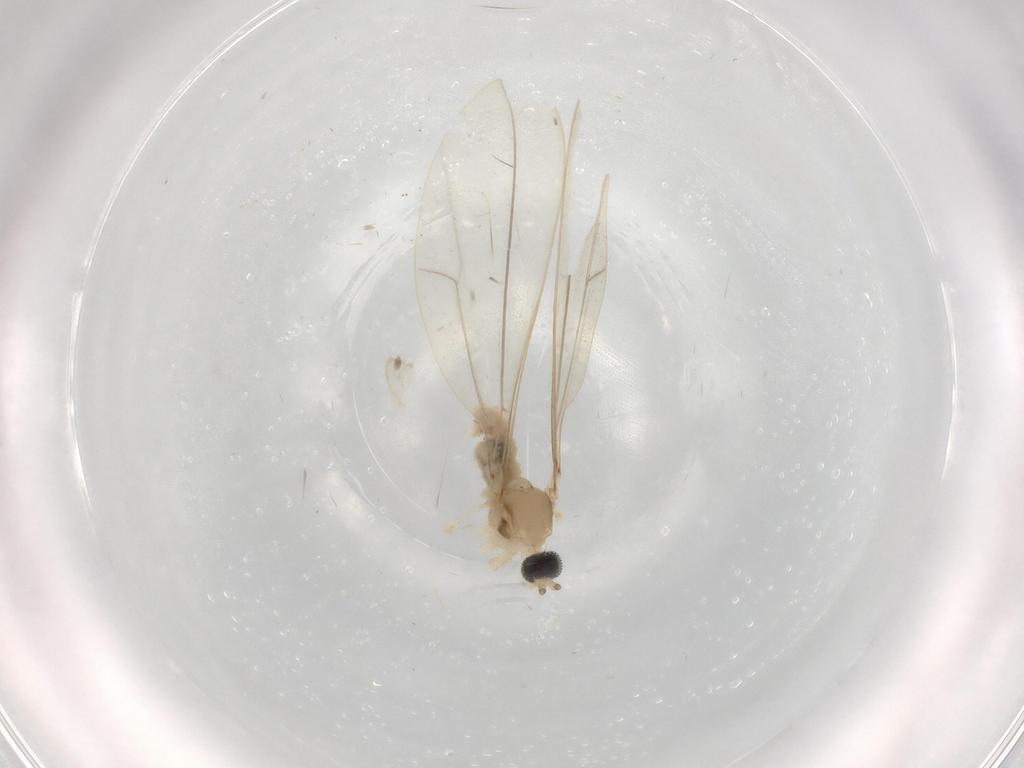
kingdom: Animalia
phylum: Arthropoda
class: Insecta
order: Diptera
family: Cecidomyiidae
